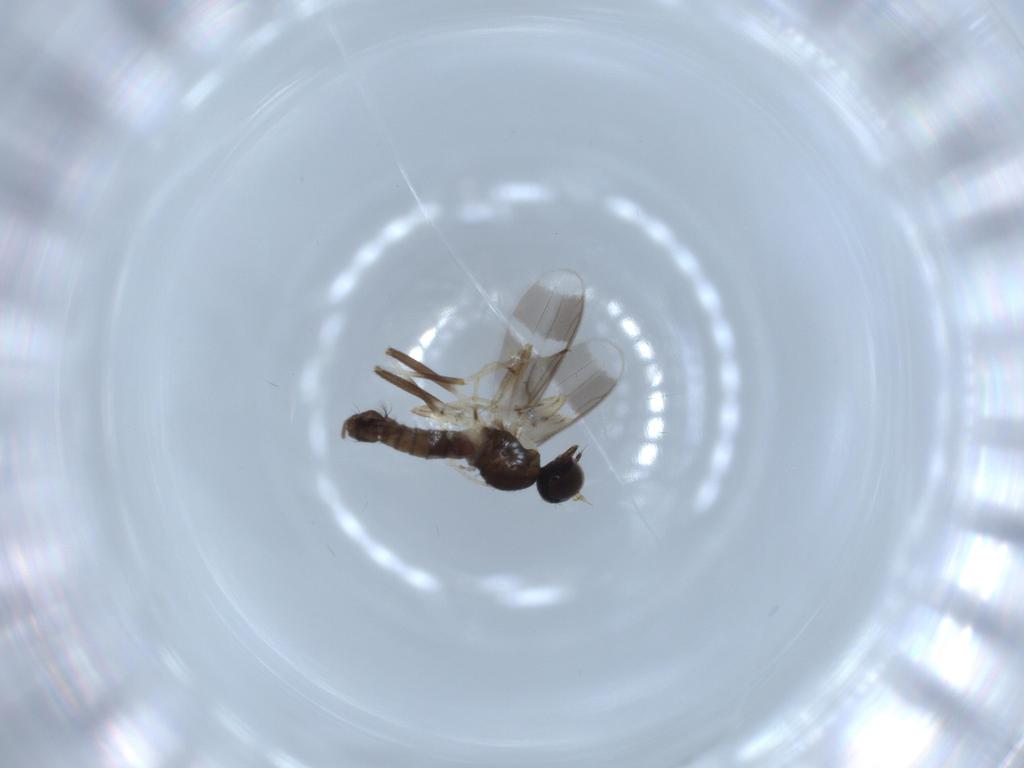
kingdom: Animalia
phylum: Arthropoda
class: Insecta
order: Diptera
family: Hybotidae
